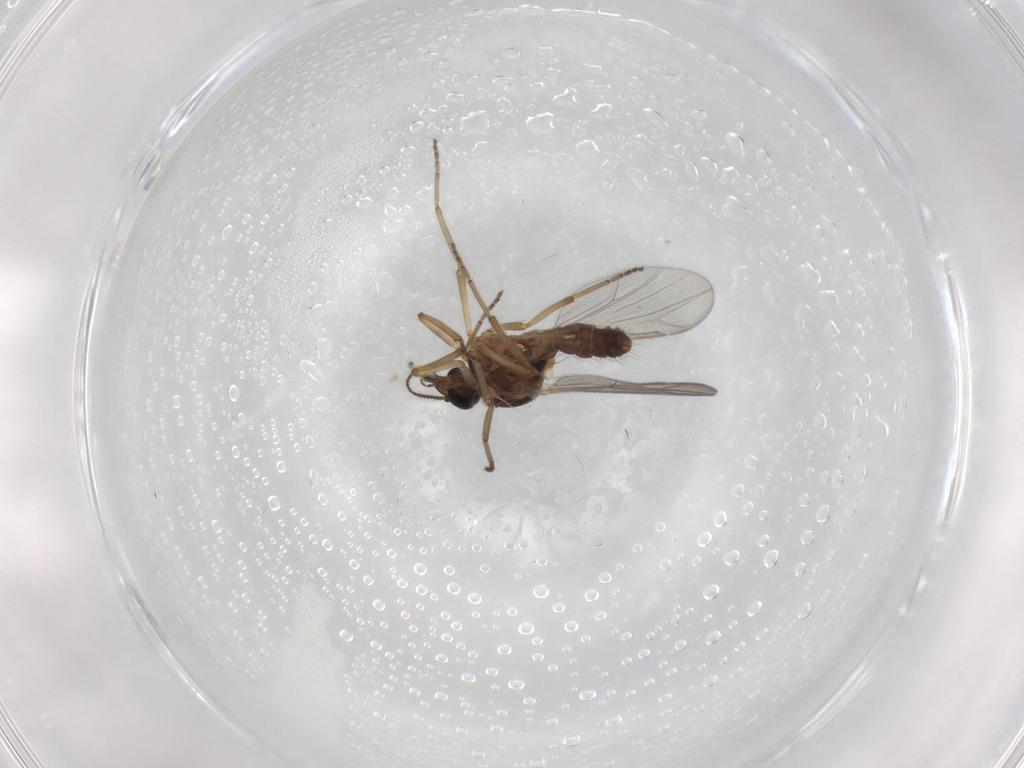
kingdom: Animalia
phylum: Arthropoda
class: Insecta
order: Diptera
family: Ceratopogonidae
